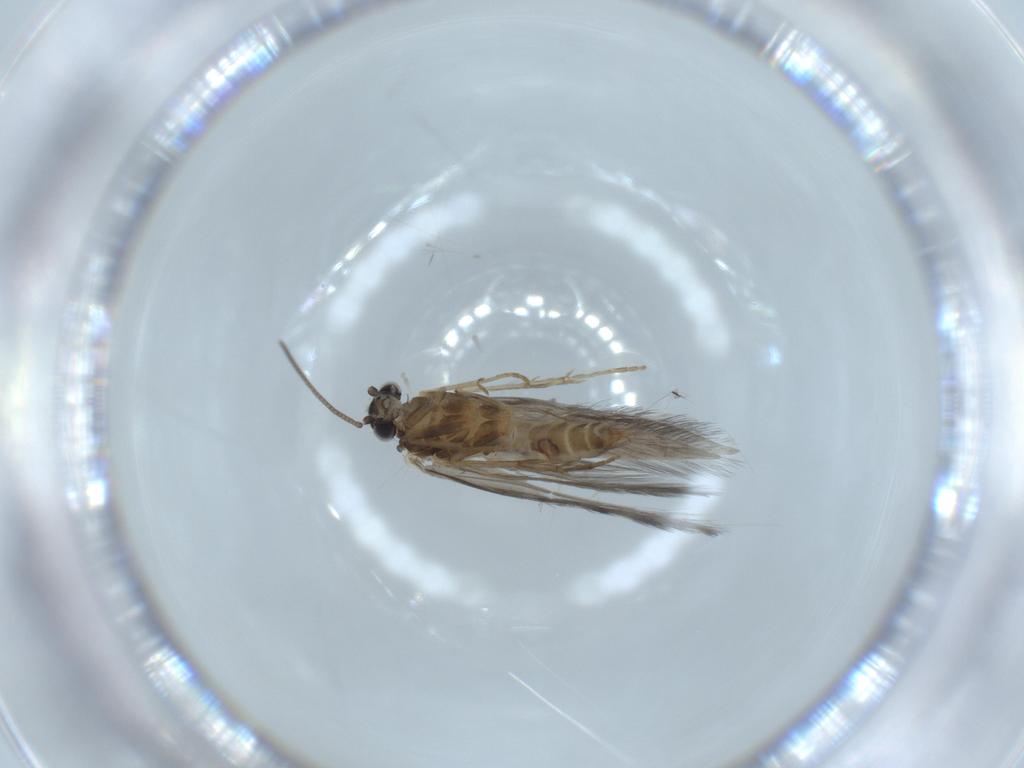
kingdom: Animalia
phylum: Arthropoda
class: Insecta
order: Trichoptera
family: Hydroptilidae
